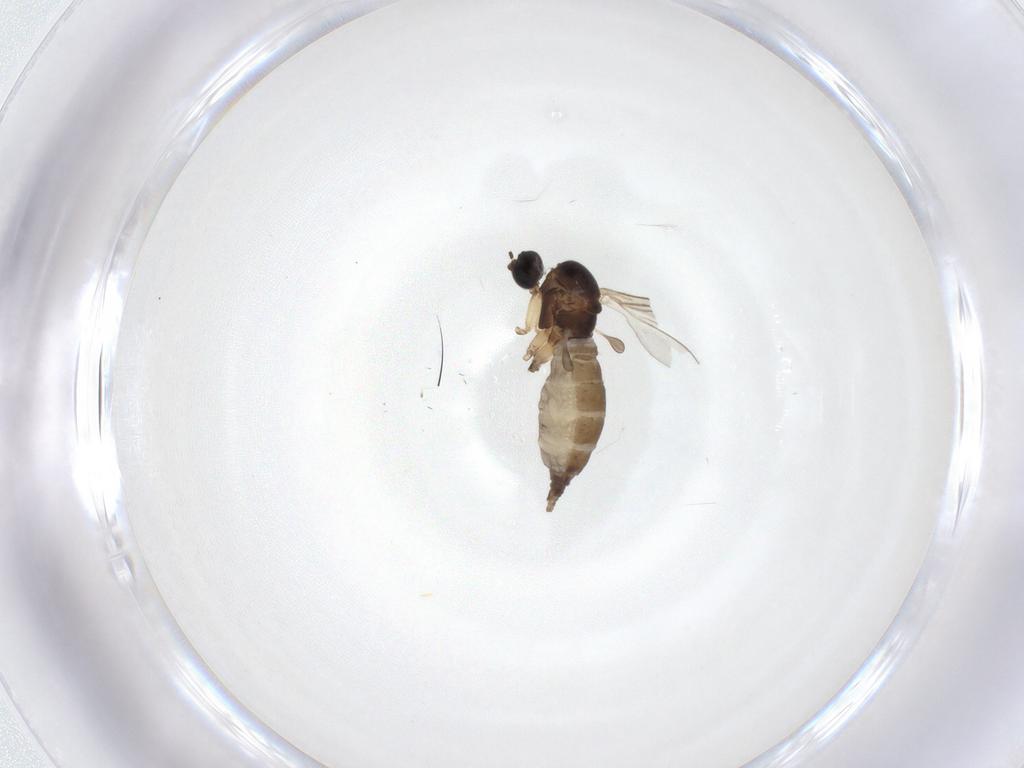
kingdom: Animalia
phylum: Arthropoda
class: Insecta
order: Diptera
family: Sciaridae
